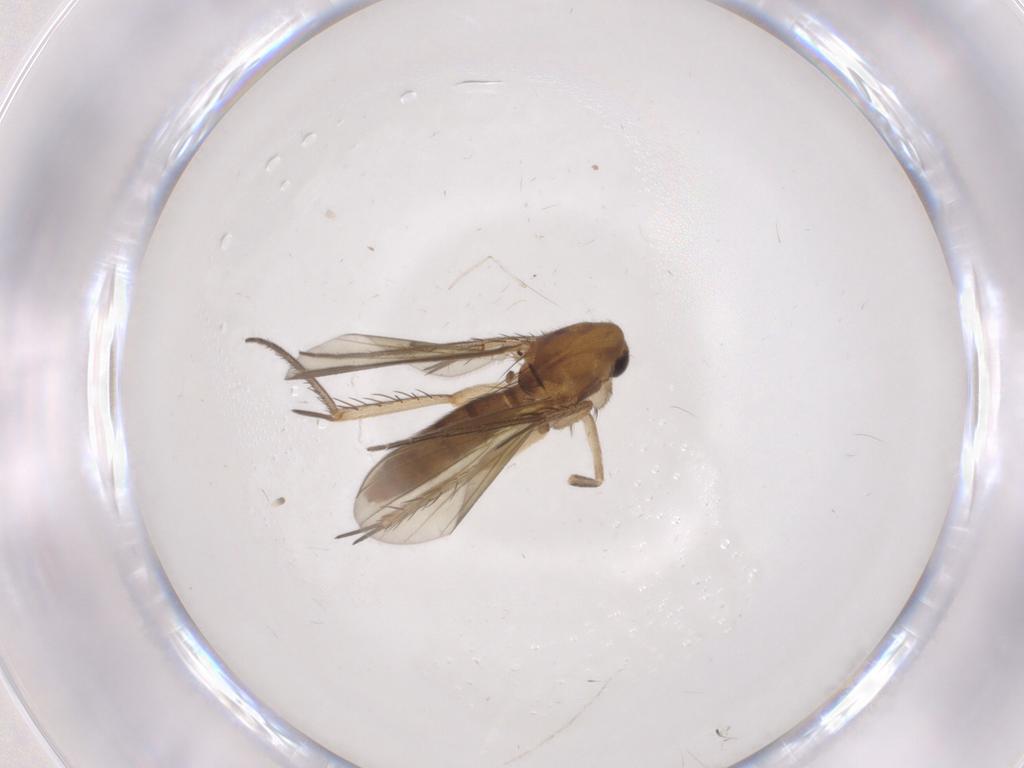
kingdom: Animalia
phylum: Arthropoda
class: Insecta
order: Diptera
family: Mycetophilidae
